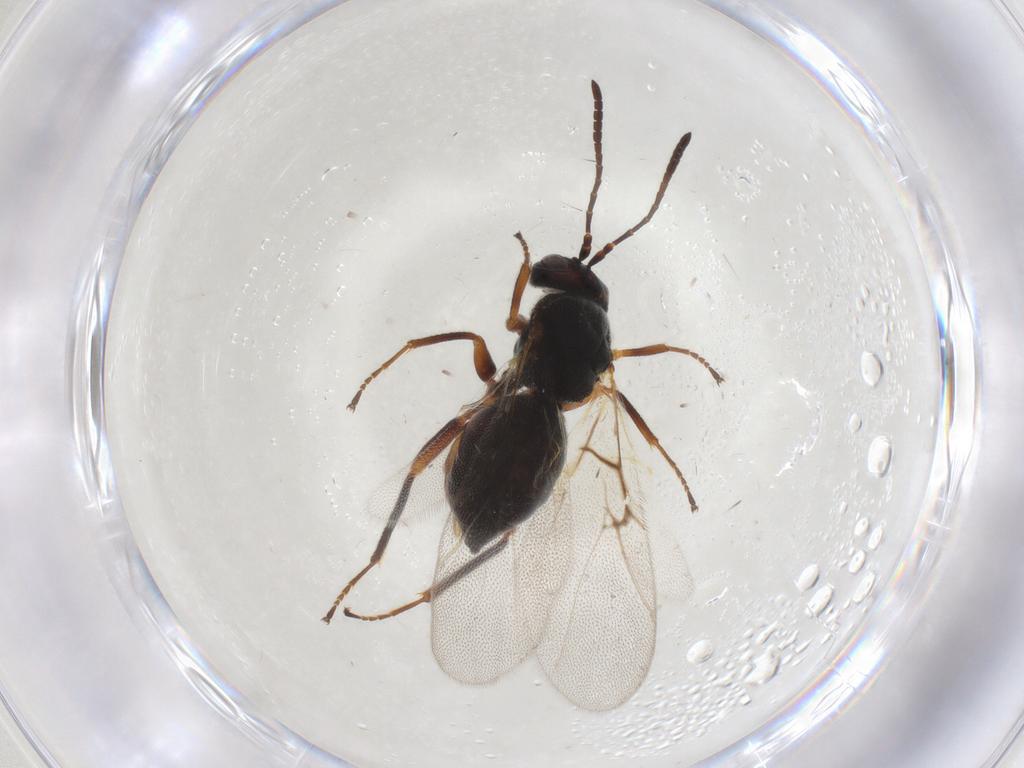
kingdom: Animalia
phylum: Arthropoda
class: Insecta
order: Hymenoptera
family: Cynipidae
